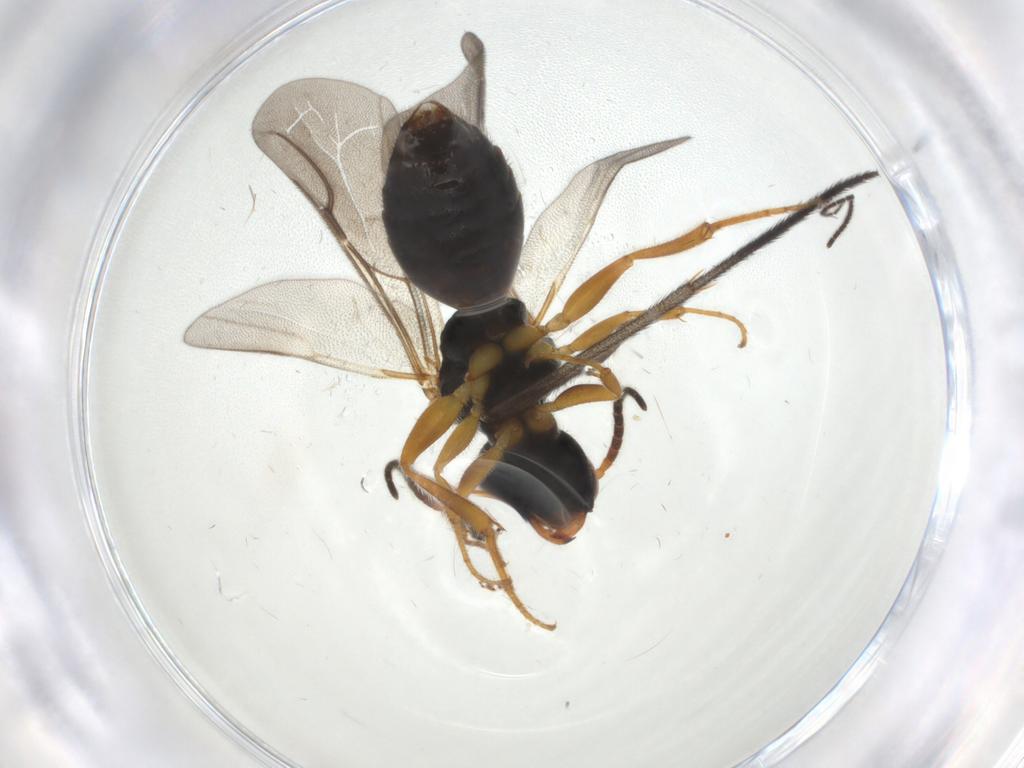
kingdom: Animalia
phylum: Arthropoda
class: Insecta
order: Hymenoptera
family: Bethylidae
